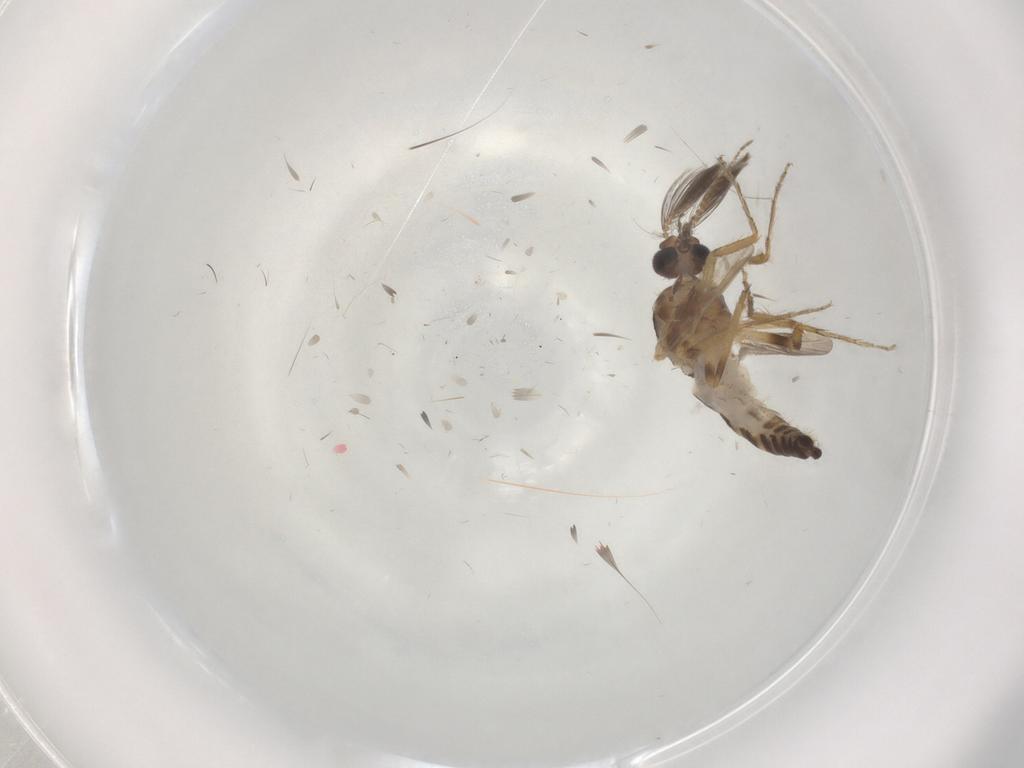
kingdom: Animalia
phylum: Arthropoda
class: Insecta
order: Diptera
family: Ceratopogonidae
